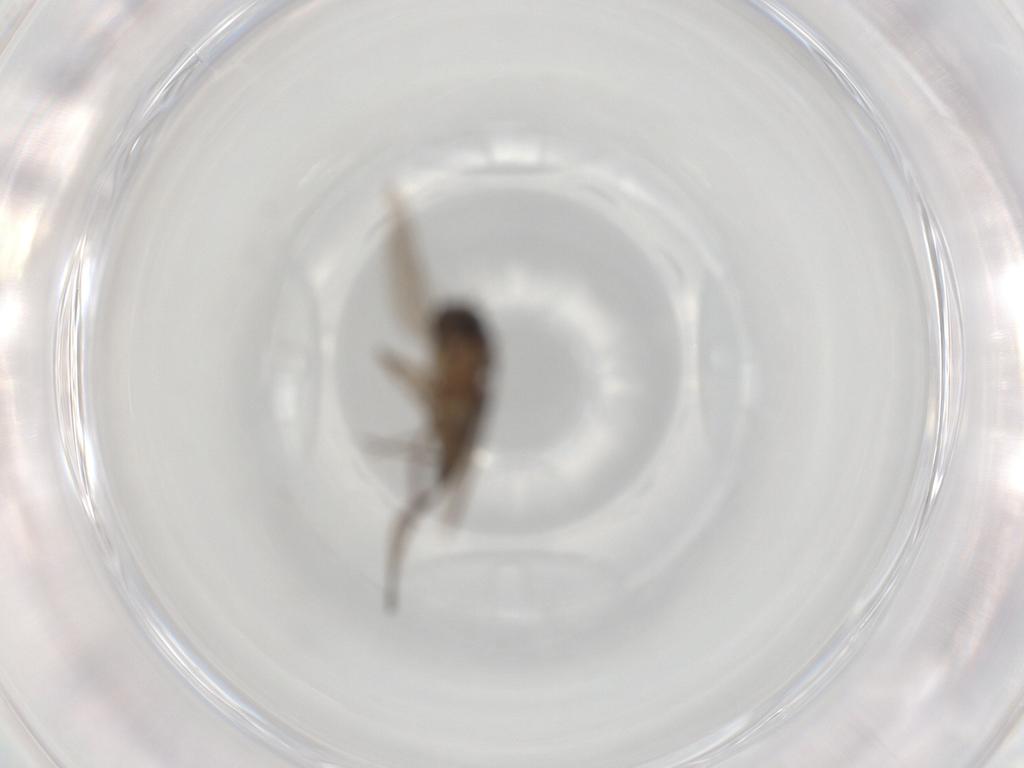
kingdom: Animalia
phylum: Arthropoda
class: Insecta
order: Diptera
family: Phoridae
